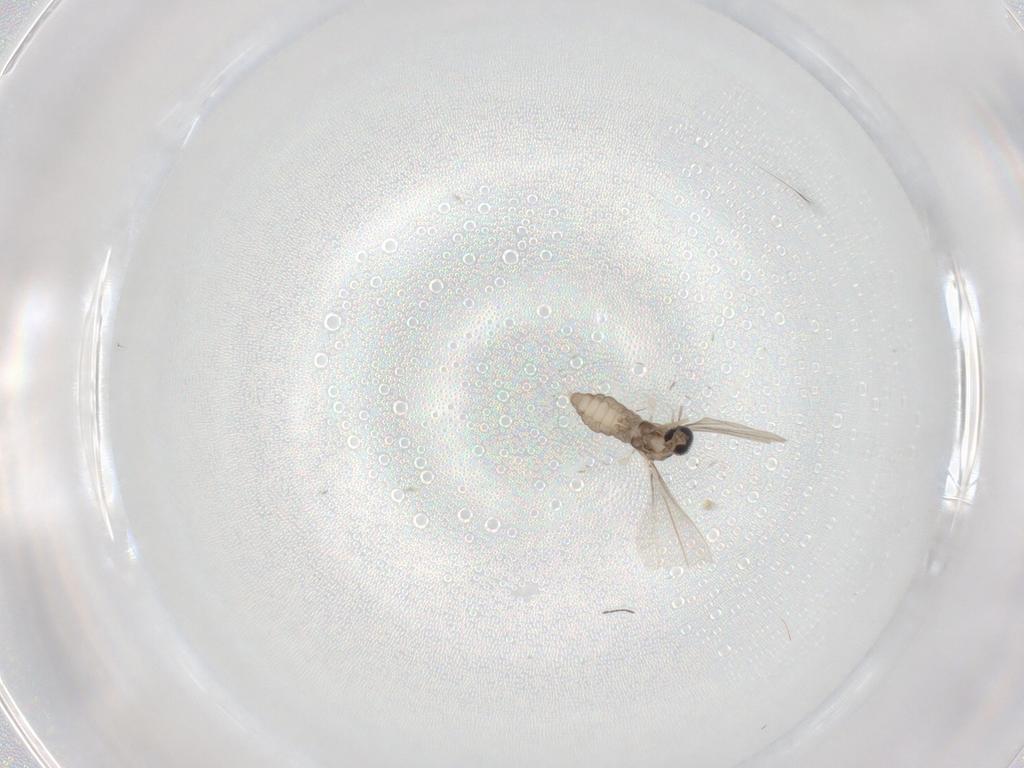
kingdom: Animalia
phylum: Arthropoda
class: Insecta
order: Diptera
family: Cecidomyiidae
